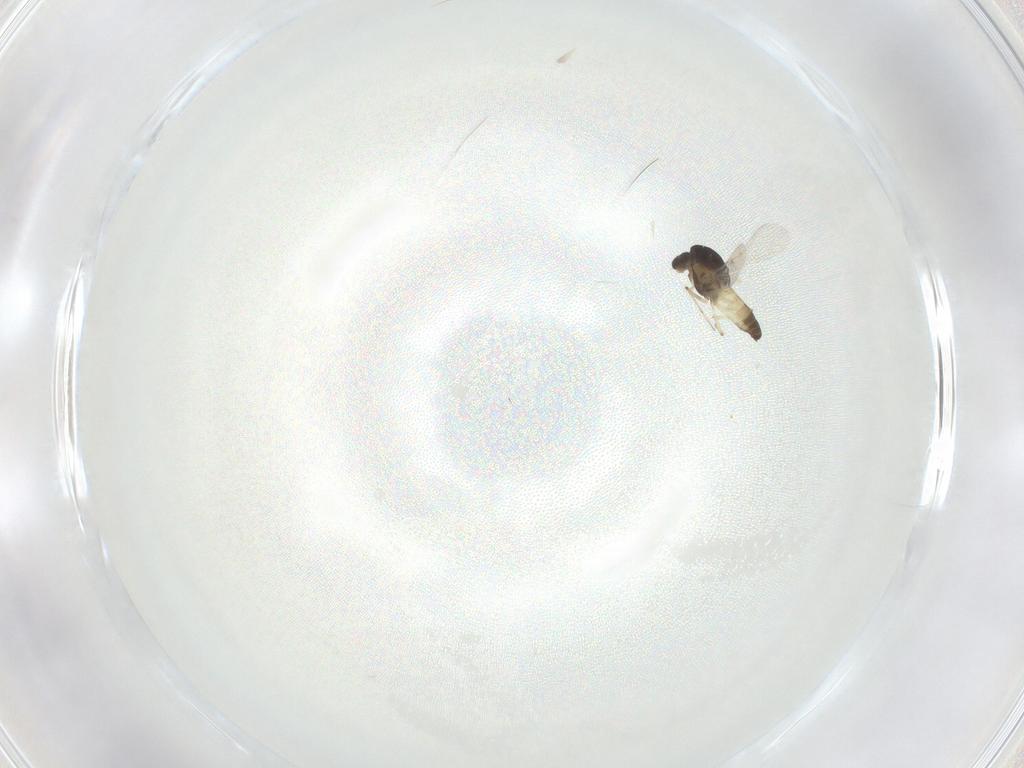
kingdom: Animalia
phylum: Arthropoda
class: Insecta
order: Diptera
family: Chironomidae
